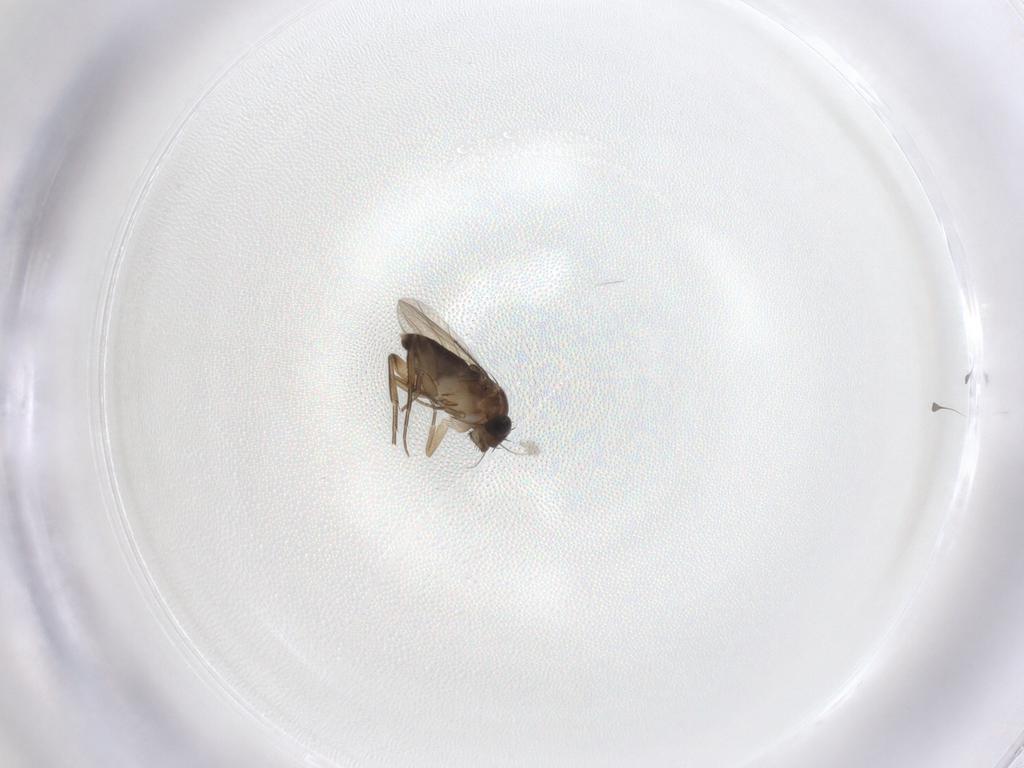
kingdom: Animalia
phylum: Arthropoda
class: Insecta
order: Diptera
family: Phoridae
